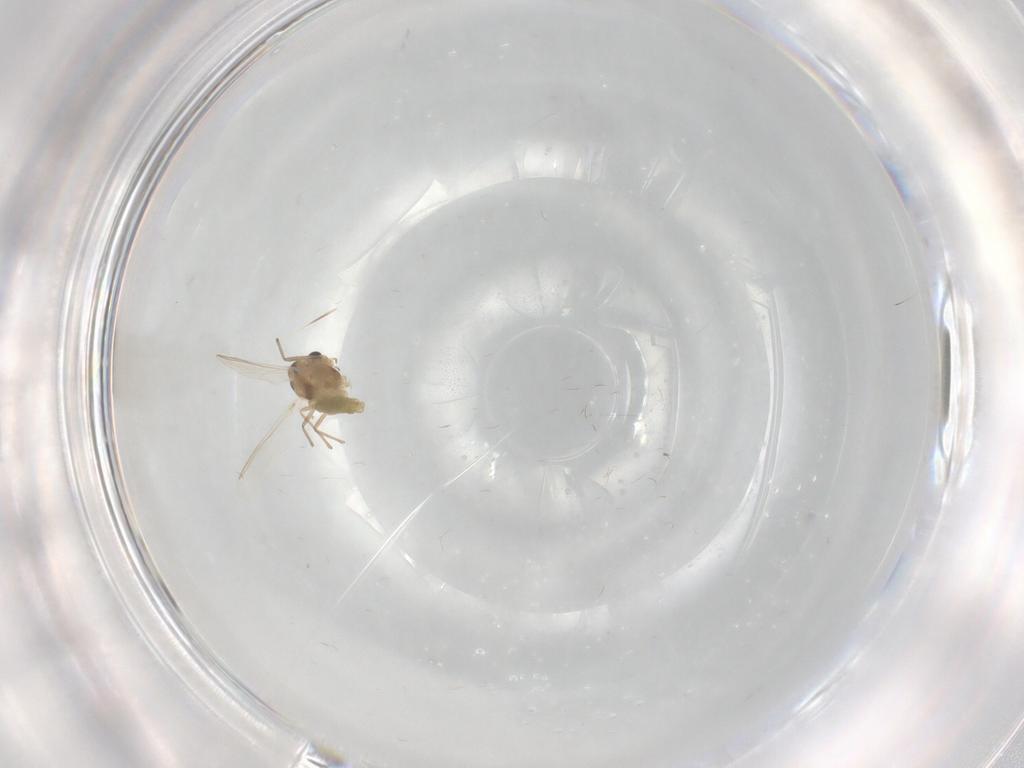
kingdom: Animalia
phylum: Arthropoda
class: Insecta
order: Diptera
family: Chironomidae
